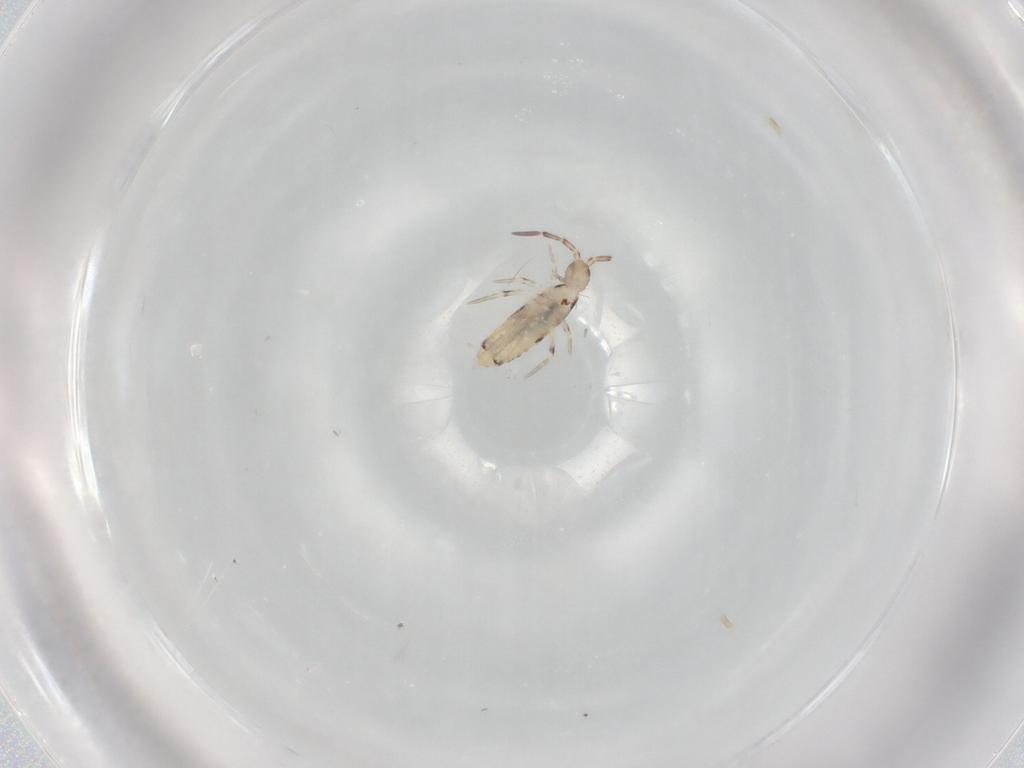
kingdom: Animalia
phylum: Arthropoda
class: Collembola
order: Entomobryomorpha
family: Entomobryidae
